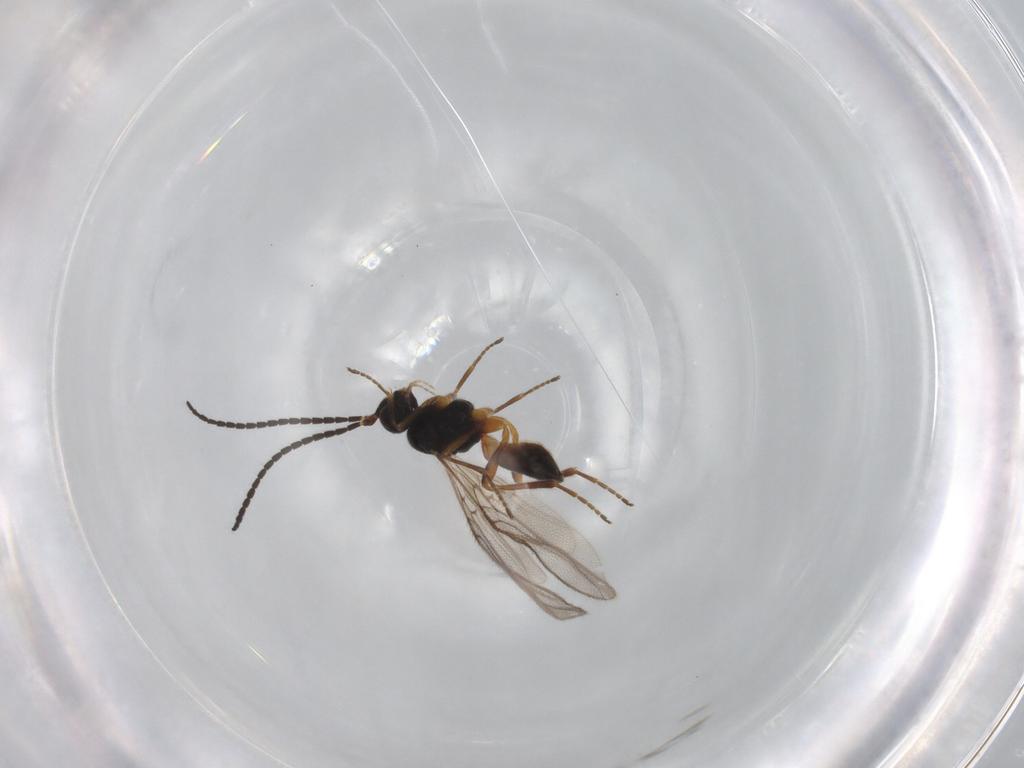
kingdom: Animalia
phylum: Arthropoda
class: Insecta
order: Hymenoptera
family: Braconidae
